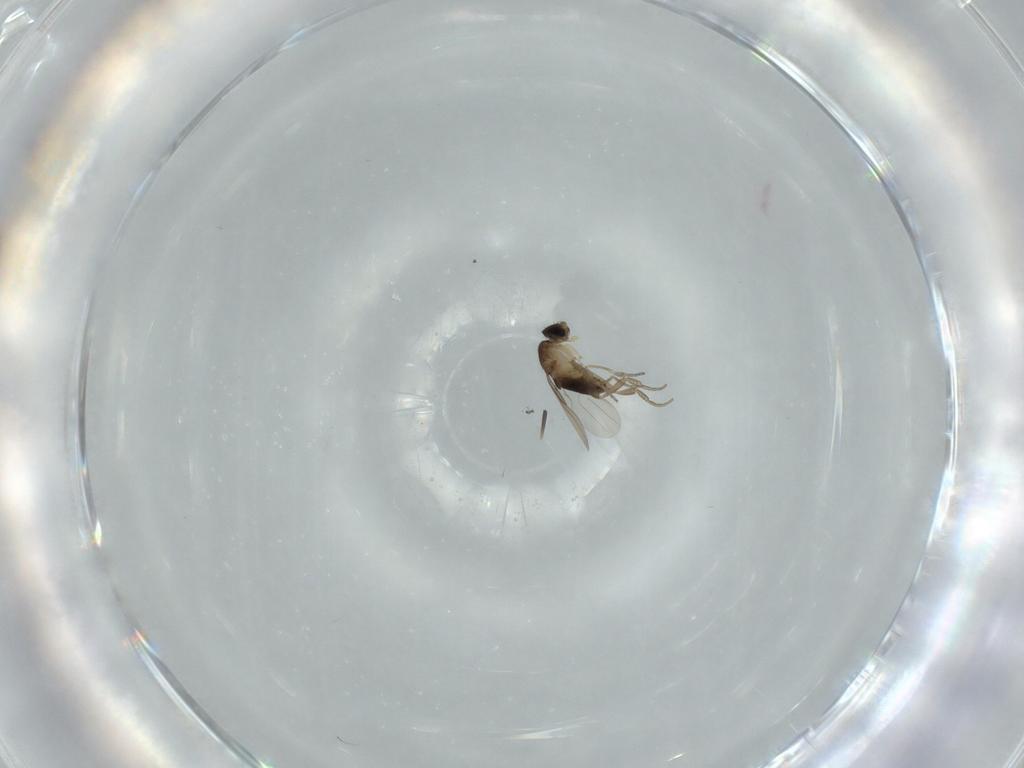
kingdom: Animalia
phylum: Arthropoda
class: Insecta
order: Diptera
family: Phoridae
